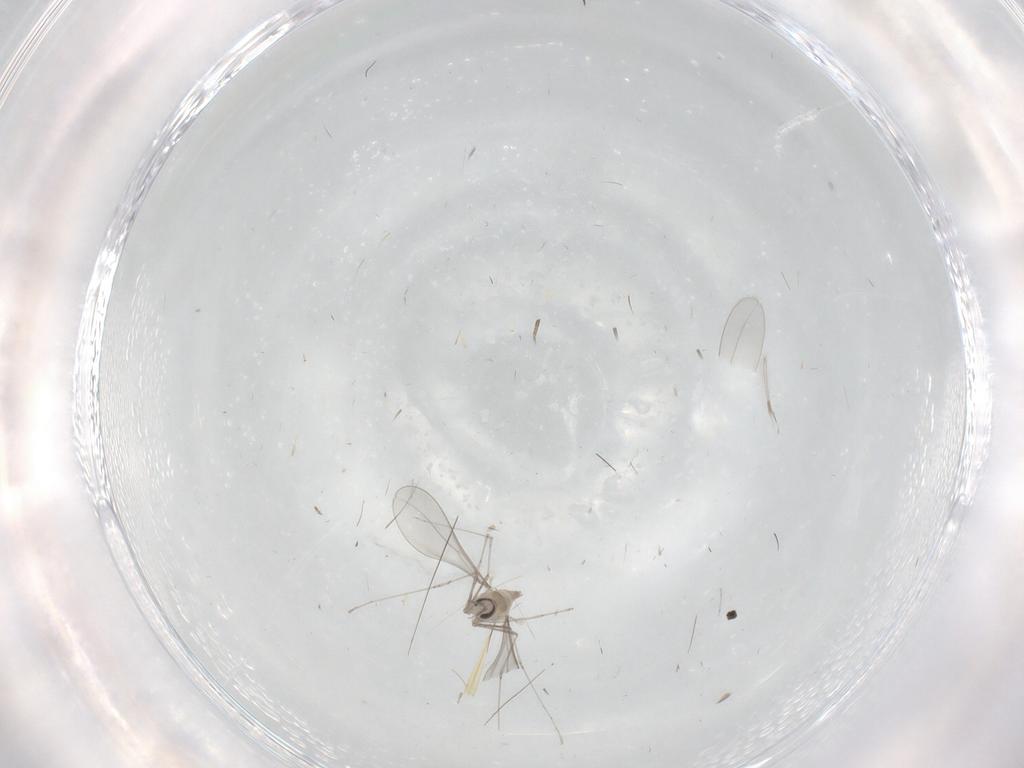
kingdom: Animalia
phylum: Arthropoda
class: Insecta
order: Diptera
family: Cecidomyiidae
